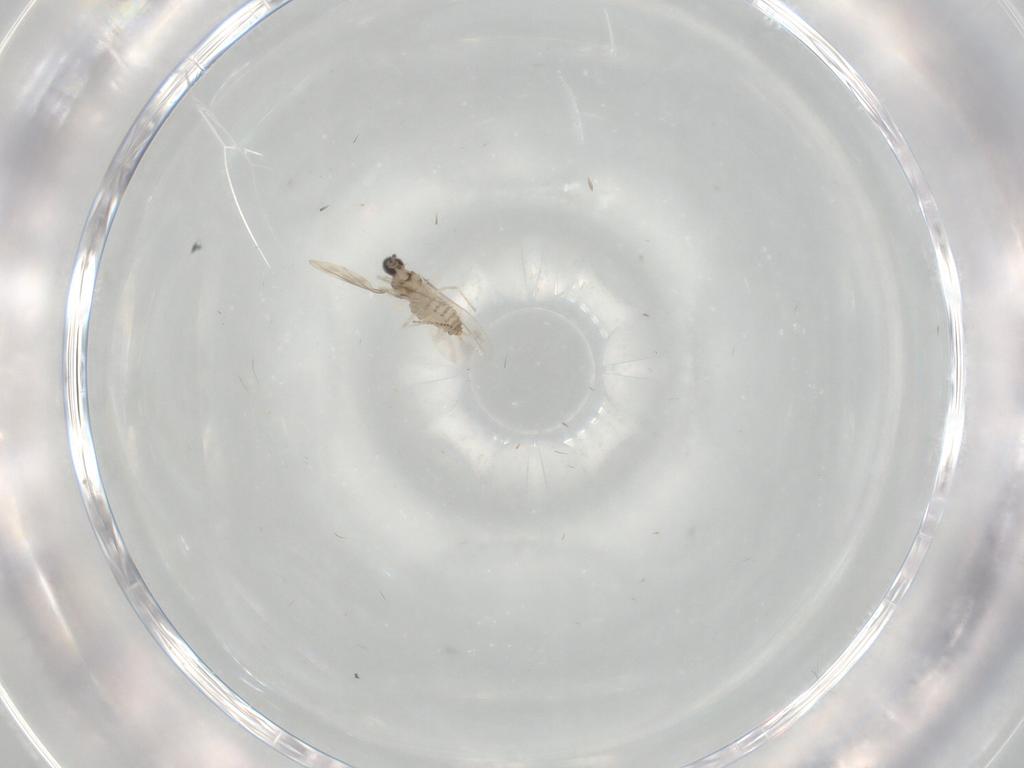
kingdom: Animalia
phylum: Arthropoda
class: Insecta
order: Diptera
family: Cecidomyiidae
